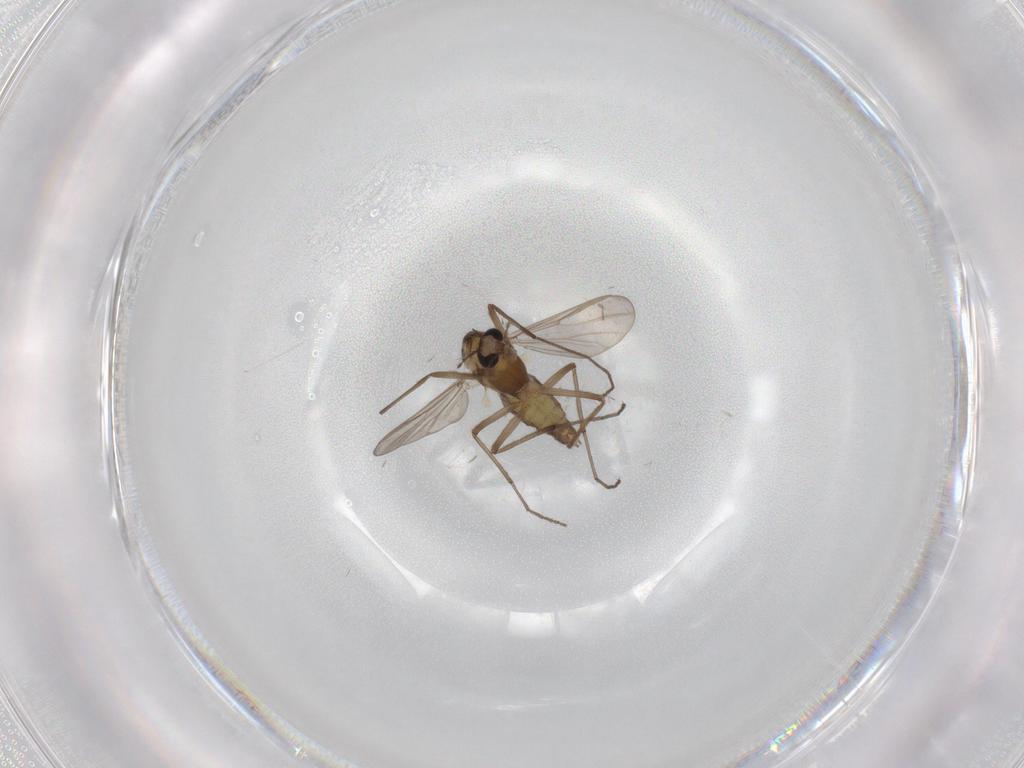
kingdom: Animalia
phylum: Arthropoda
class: Insecta
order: Diptera
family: Chironomidae
